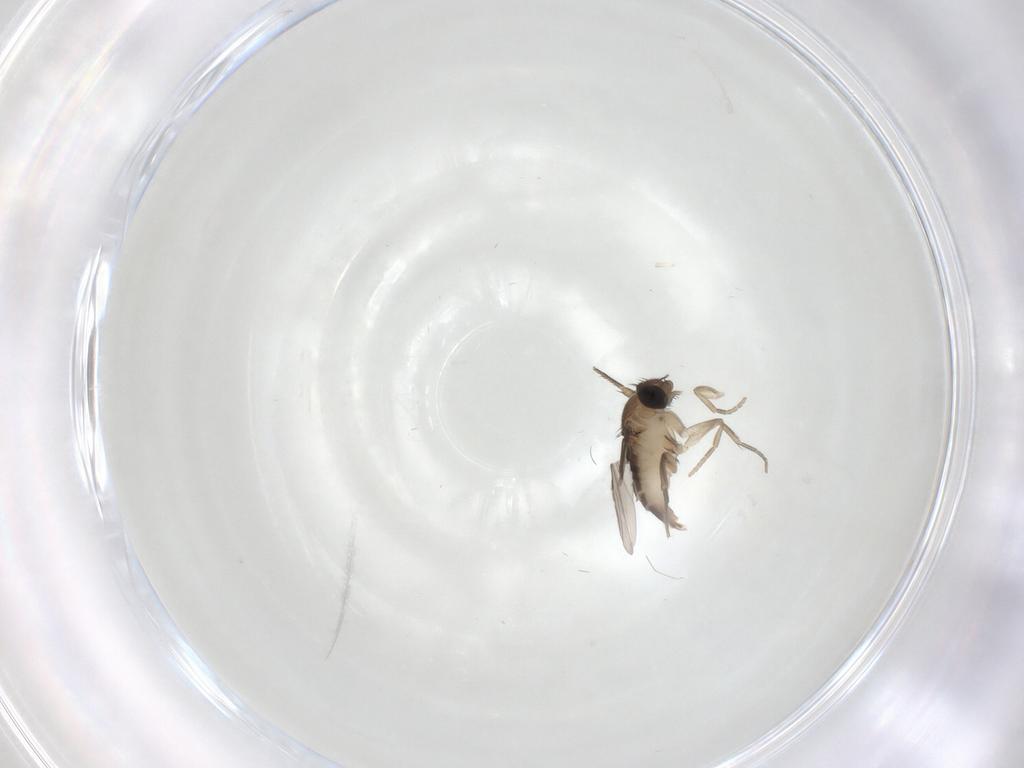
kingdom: Animalia
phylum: Arthropoda
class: Insecta
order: Diptera
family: Phoridae
